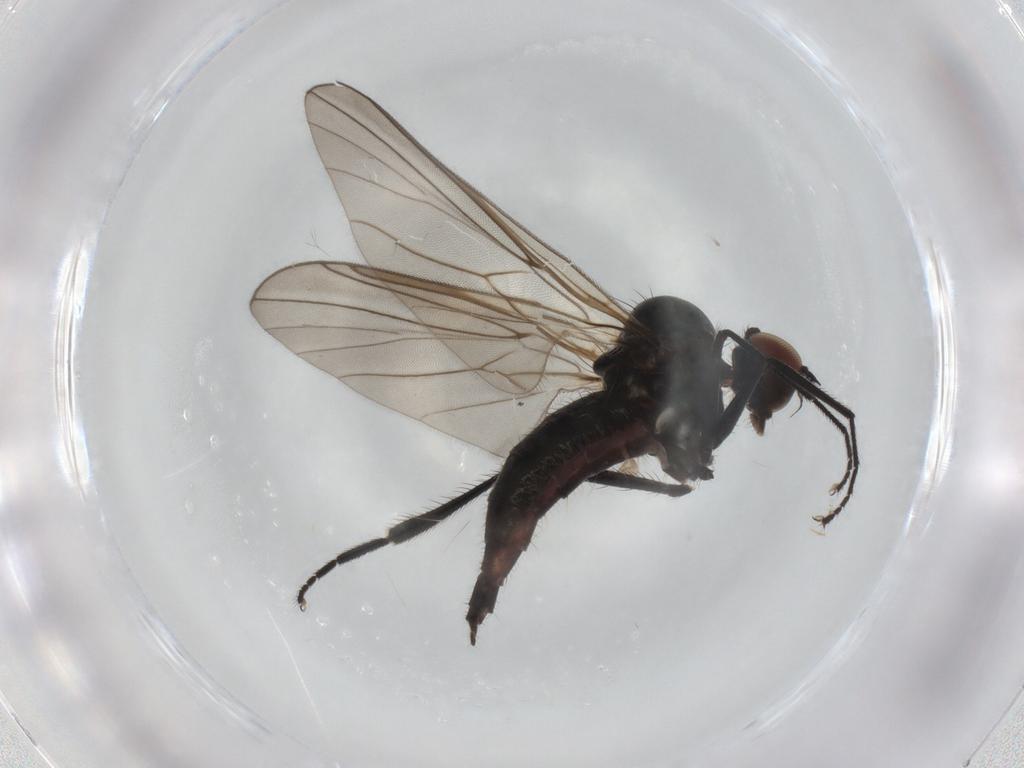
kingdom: Animalia
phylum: Arthropoda
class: Insecta
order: Diptera
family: Hybotidae
